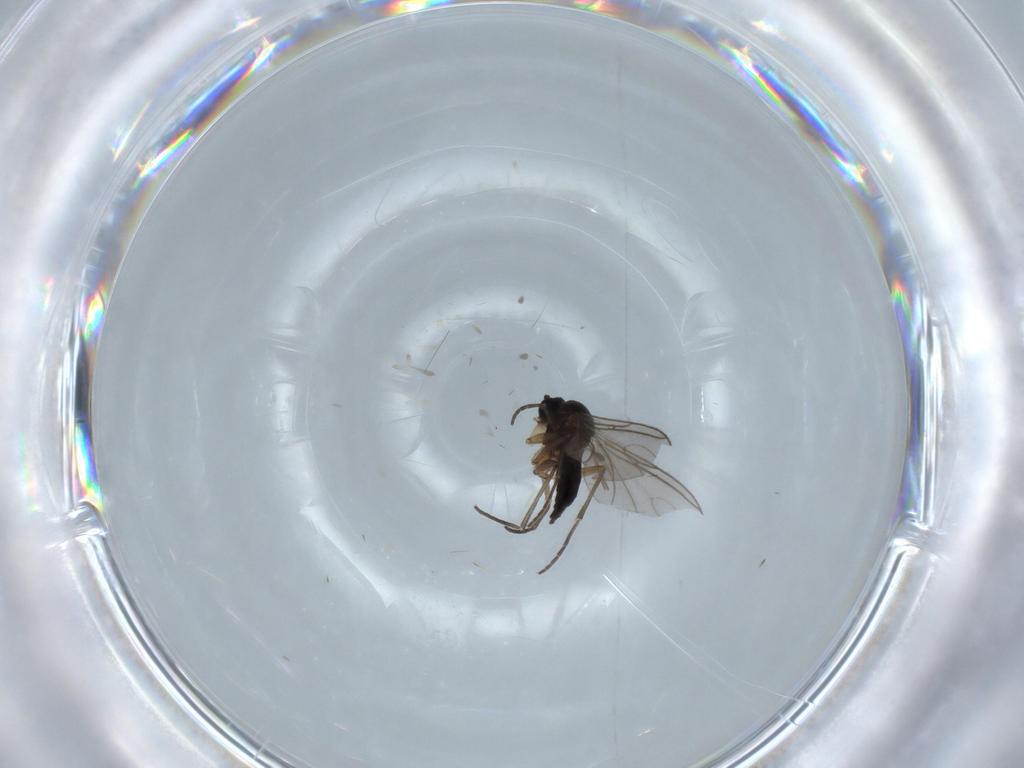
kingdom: Animalia
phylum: Arthropoda
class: Insecta
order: Diptera
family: Sciaridae
